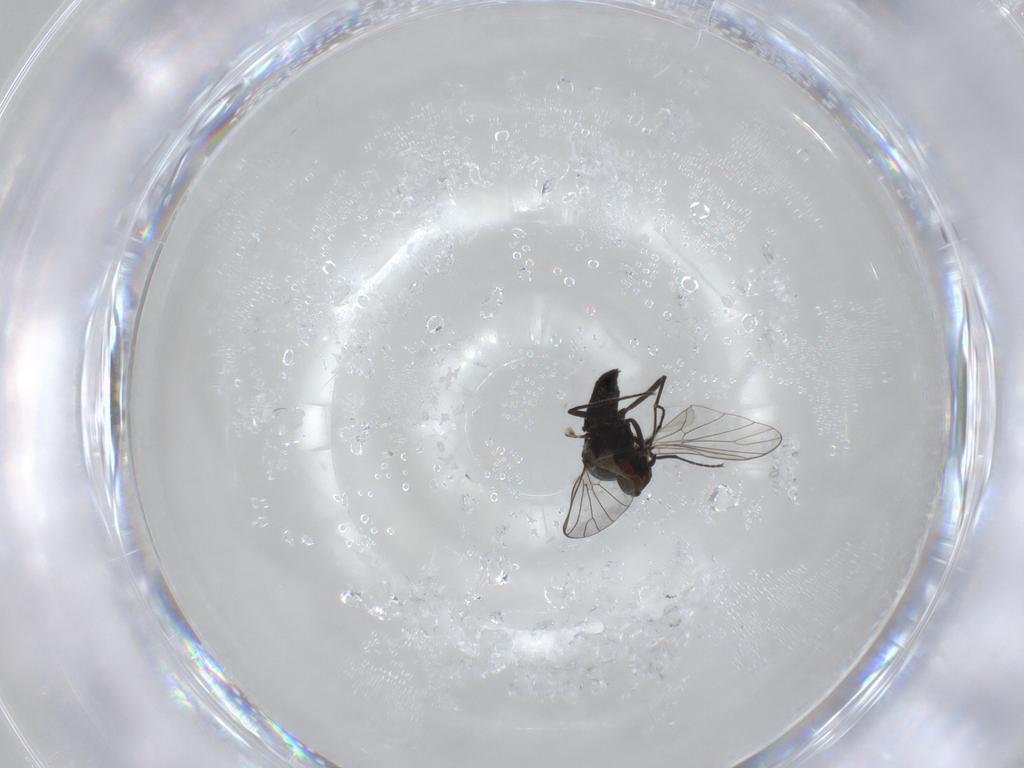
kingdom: Animalia
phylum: Arthropoda
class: Insecta
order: Diptera
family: Bombyliidae
